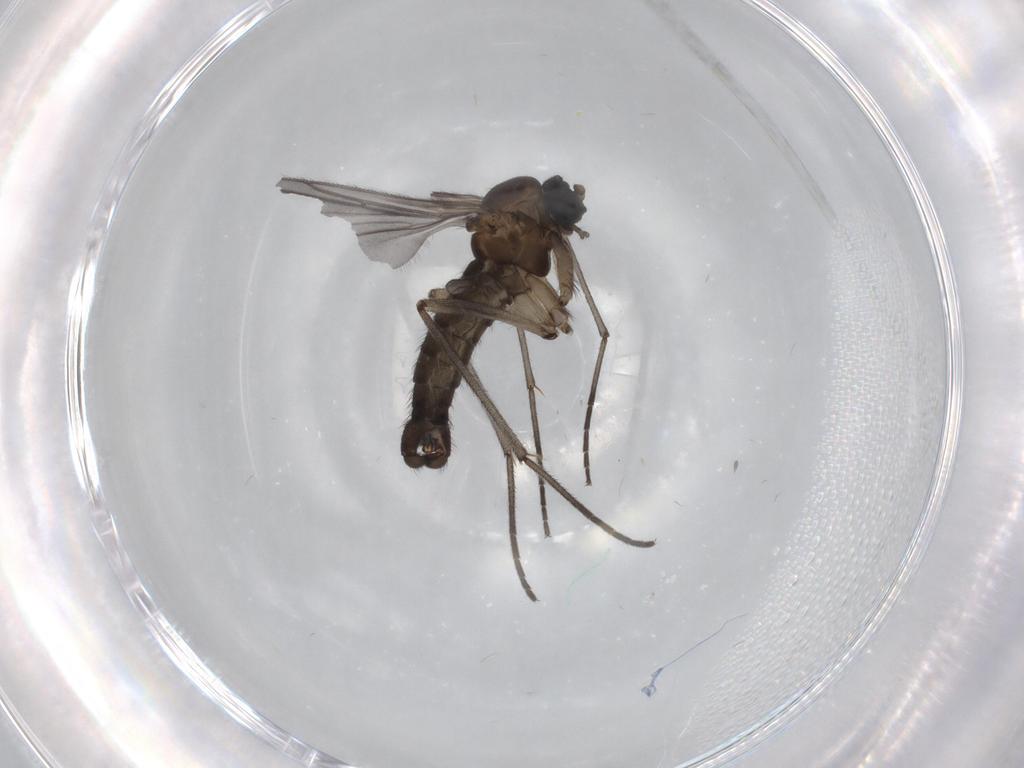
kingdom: Animalia
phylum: Arthropoda
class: Insecta
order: Diptera
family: Sciaridae
